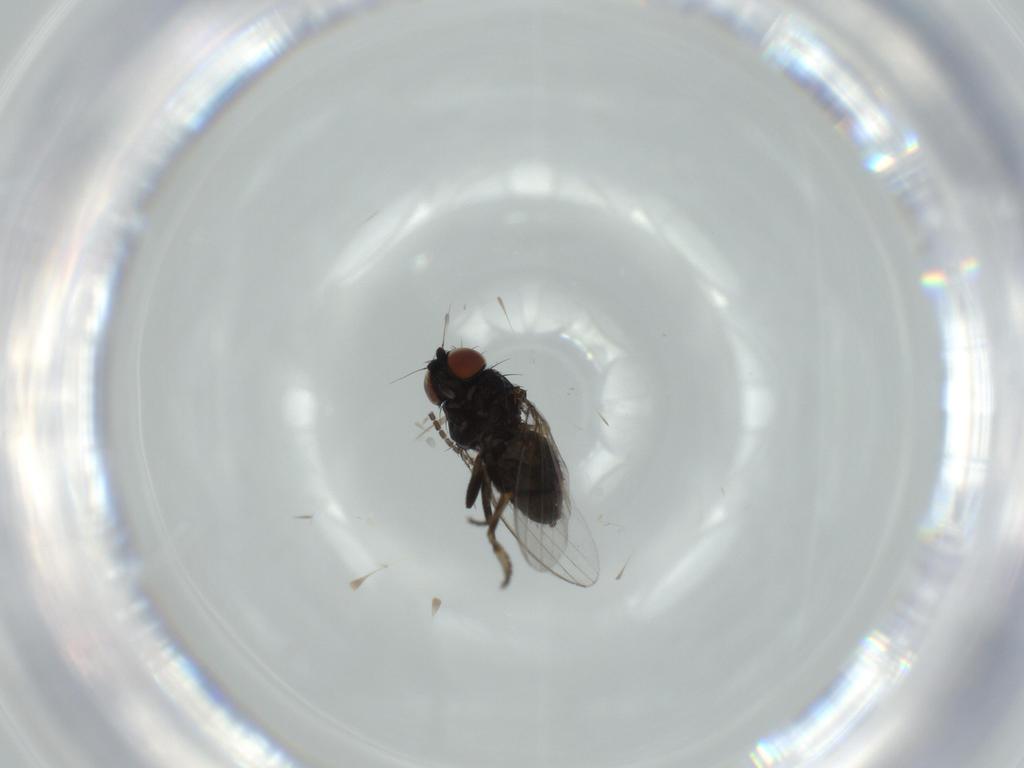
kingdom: Animalia
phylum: Arthropoda
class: Insecta
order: Diptera
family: Milichiidae
